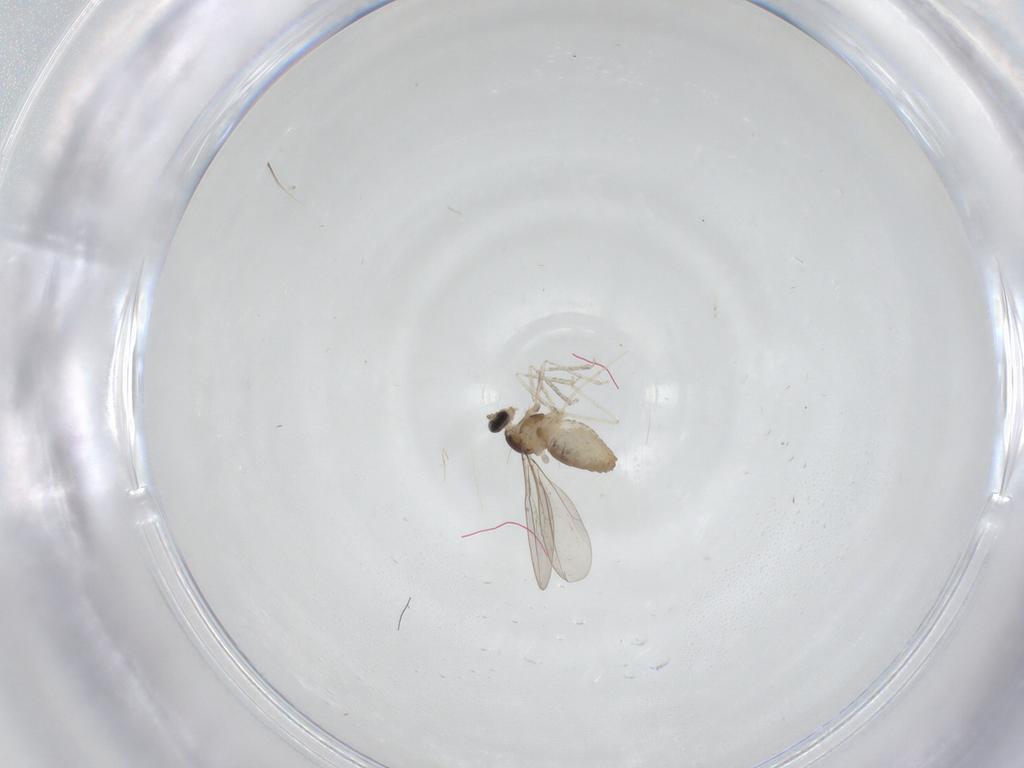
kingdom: Animalia
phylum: Arthropoda
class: Insecta
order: Diptera
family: Cecidomyiidae
